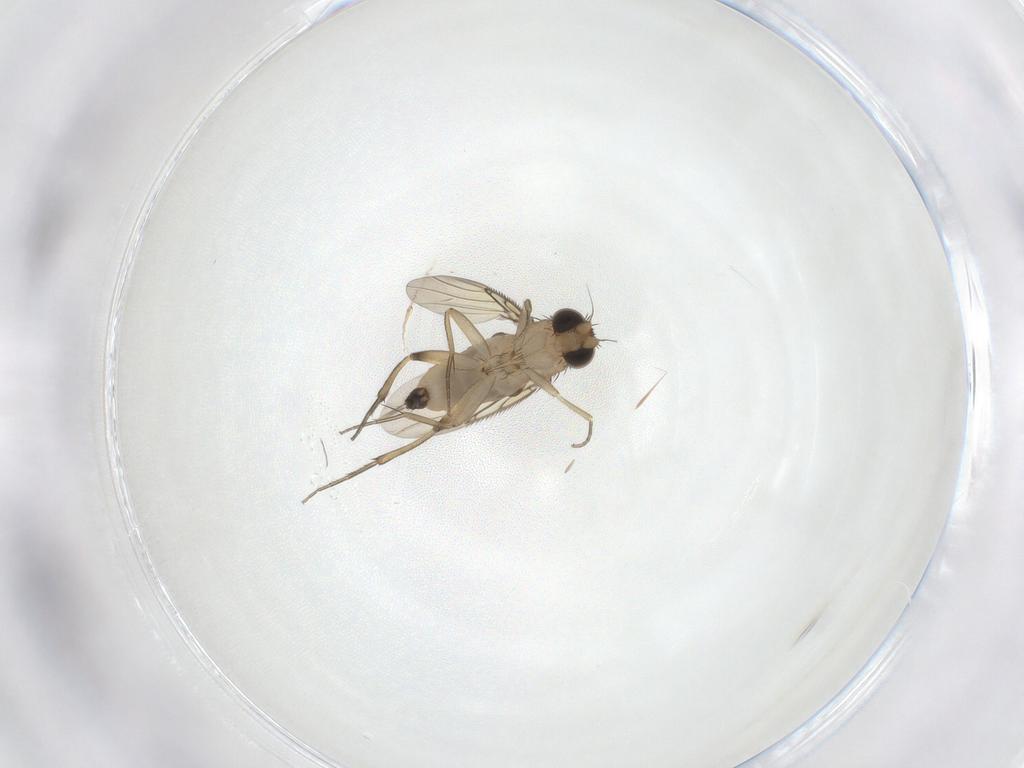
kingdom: Animalia
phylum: Arthropoda
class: Insecta
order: Diptera
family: Phoridae
